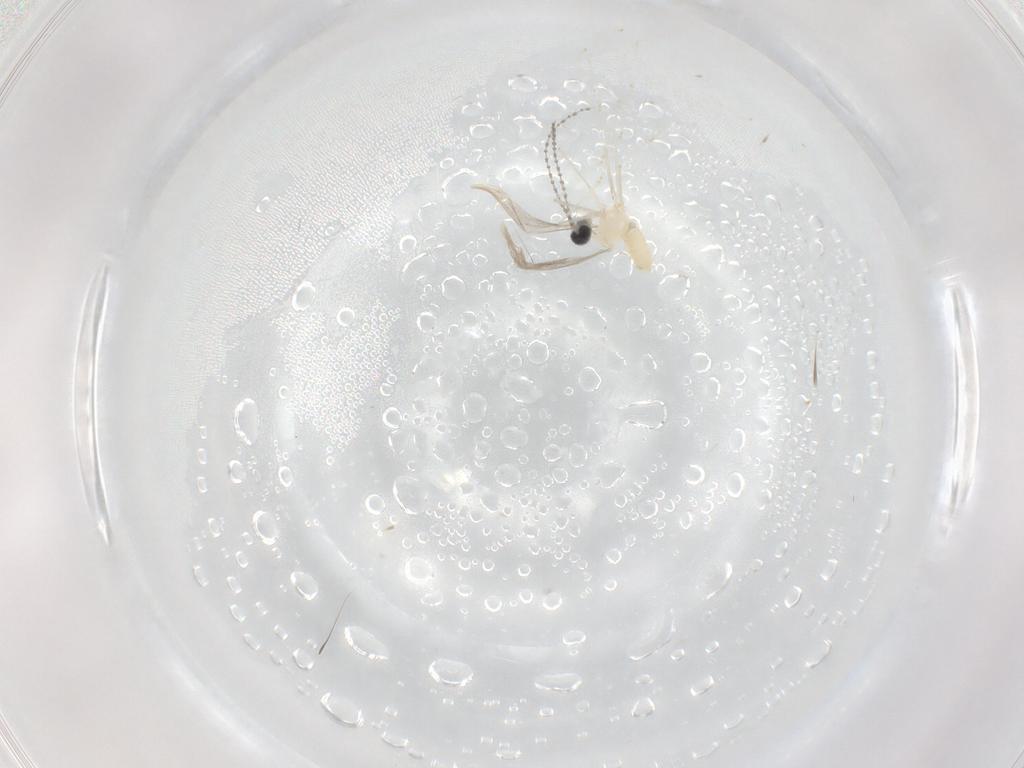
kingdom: Animalia
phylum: Arthropoda
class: Insecta
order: Diptera
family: Cecidomyiidae
